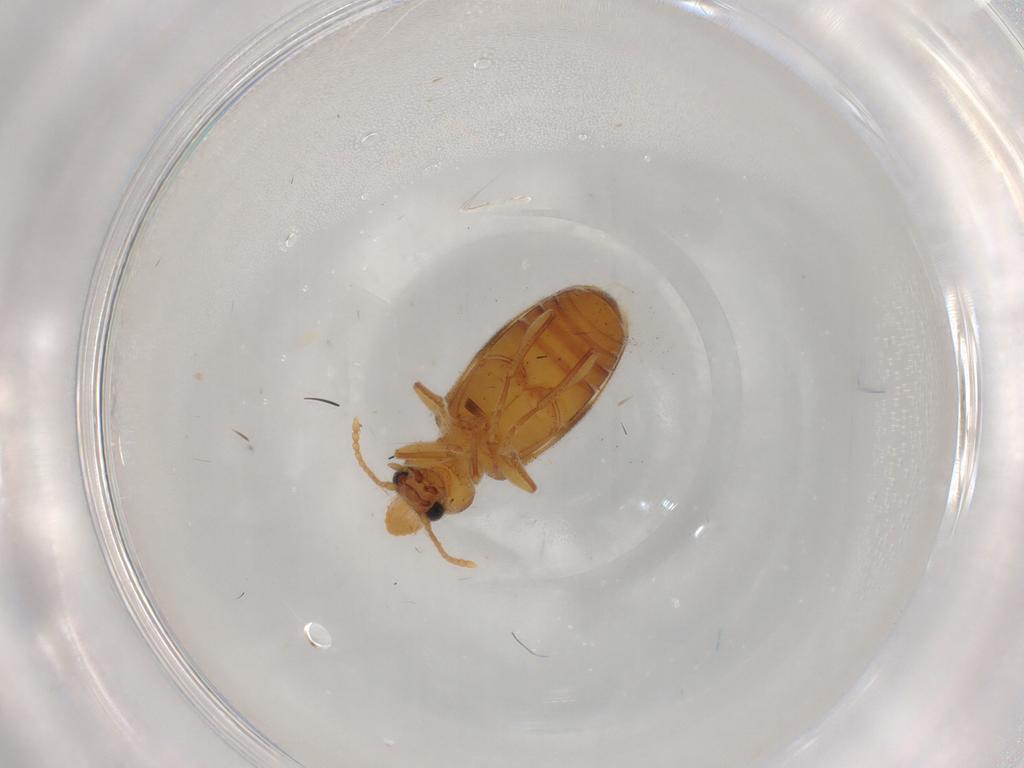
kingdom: Animalia
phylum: Arthropoda
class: Insecta
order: Coleoptera
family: Anthicidae
